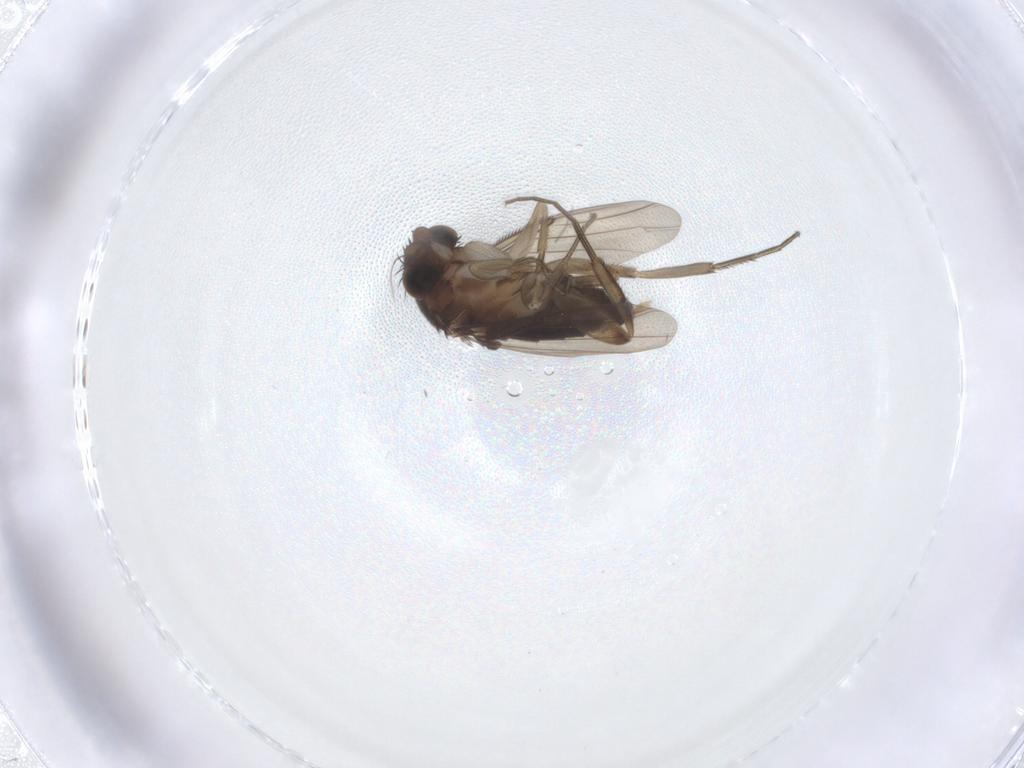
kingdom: Animalia
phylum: Arthropoda
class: Insecta
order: Diptera
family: Phoridae
